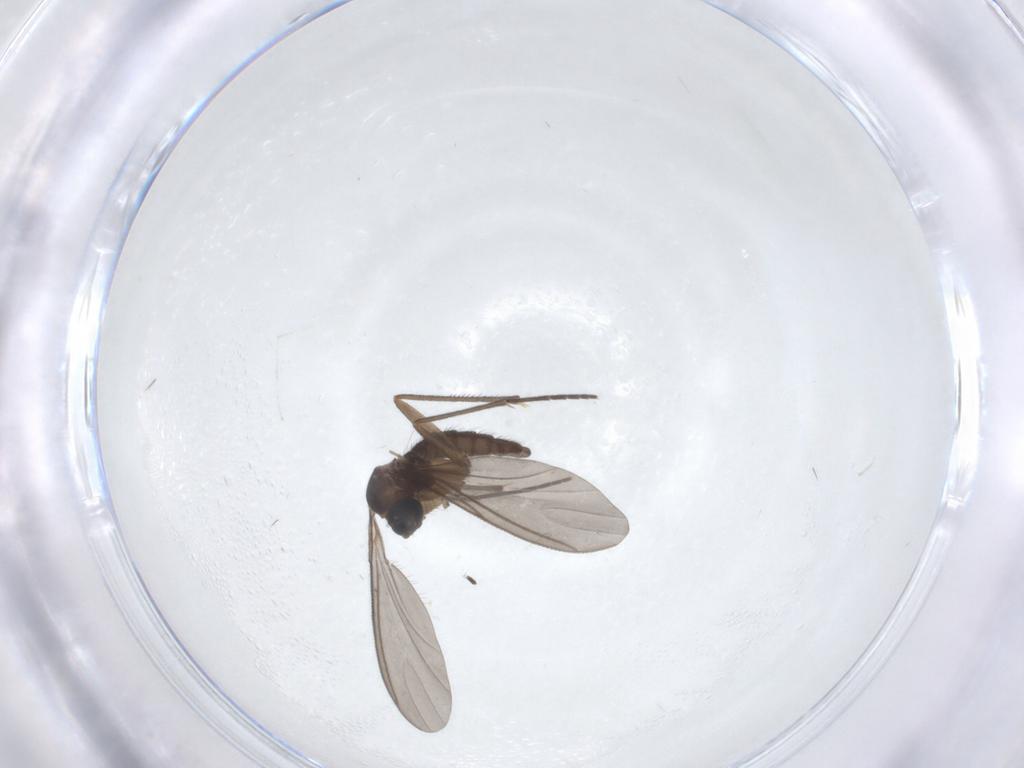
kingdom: Animalia
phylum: Arthropoda
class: Insecta
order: Diptera
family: Sciaridae
